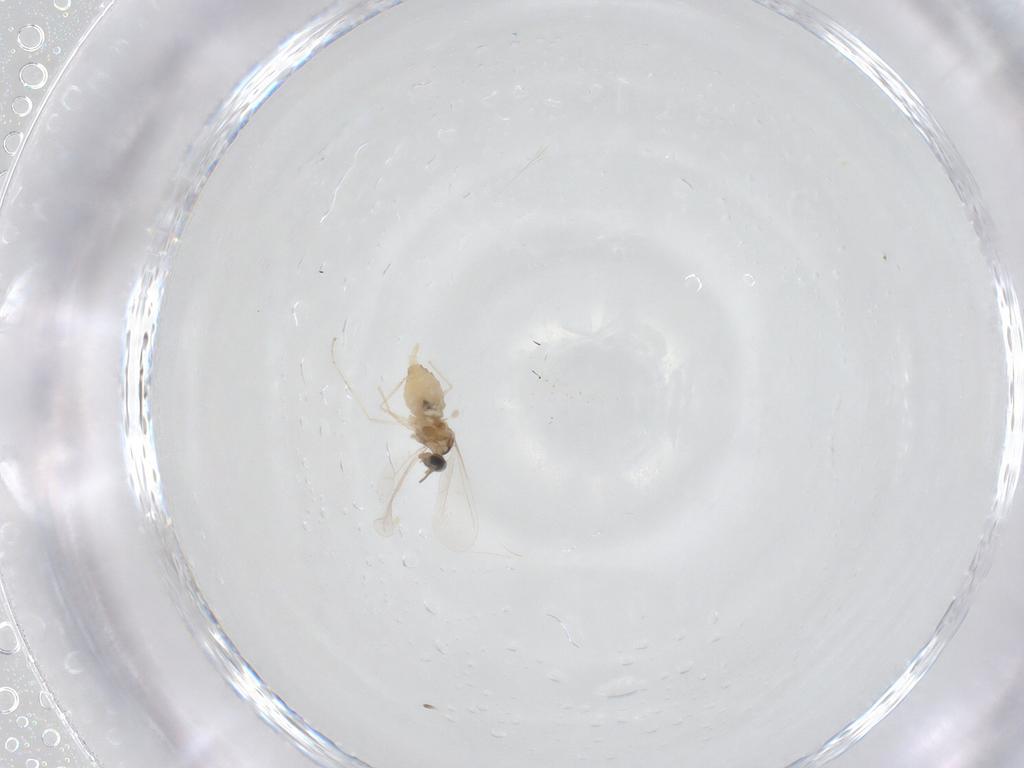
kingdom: Animalia
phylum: Arthropoda
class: Insecta
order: Diptera
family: Cecidomyiidae
